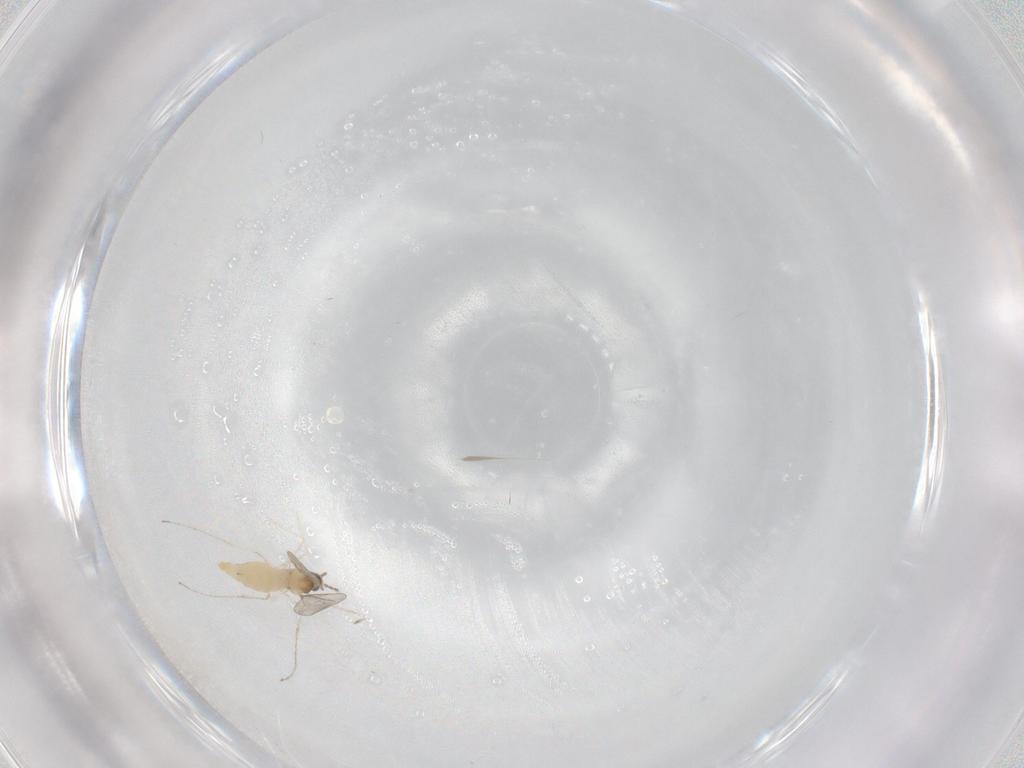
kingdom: Animalia
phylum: Arthropoda
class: Insecta
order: Diptera
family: Cecidomyiidae
